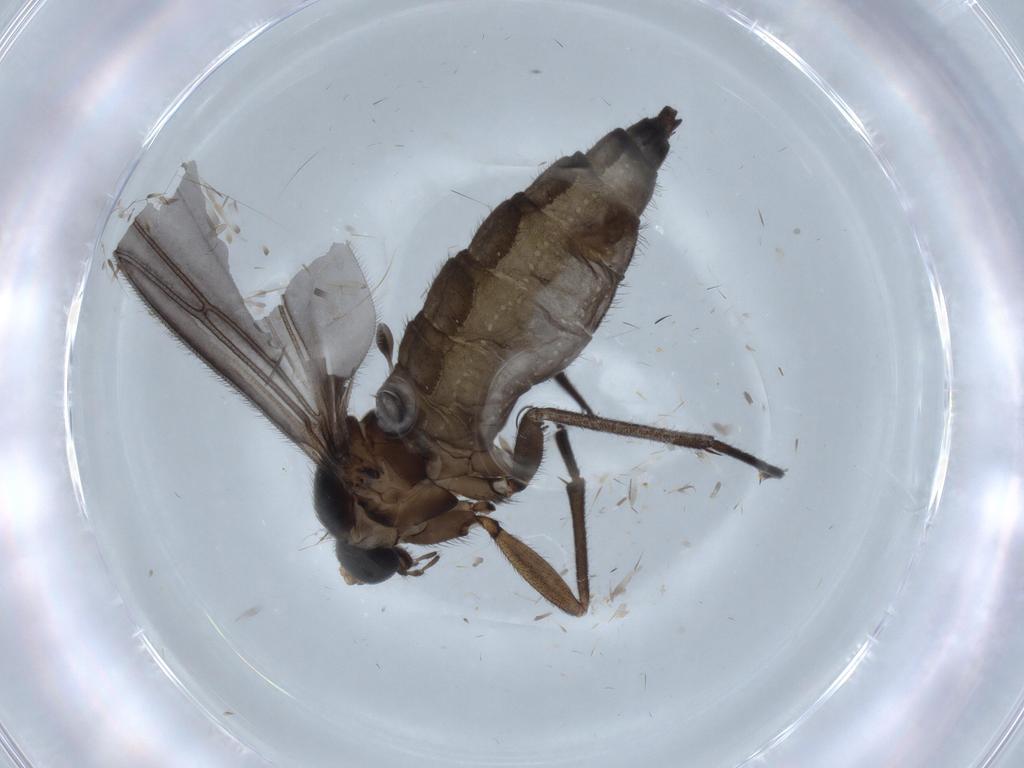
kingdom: Animalia
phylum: Arthropoda
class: Insecta
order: Diptera
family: Sciaridae
